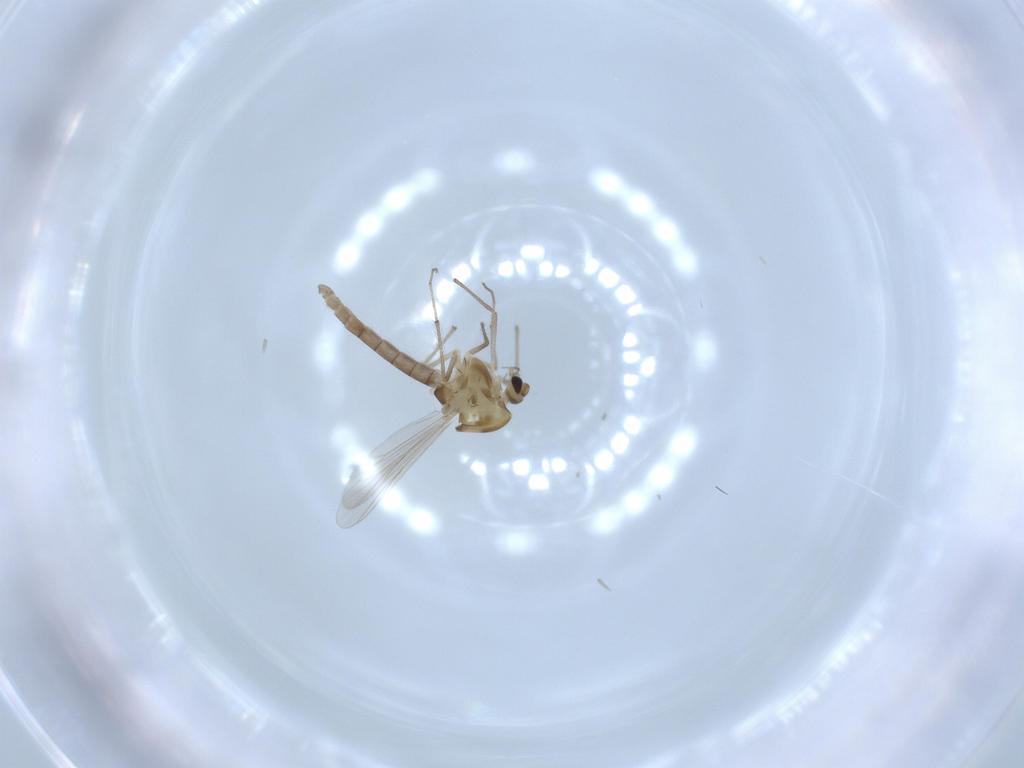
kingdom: Animalia
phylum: Arthropoda
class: Insecta
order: Diptera
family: Chironomidae
